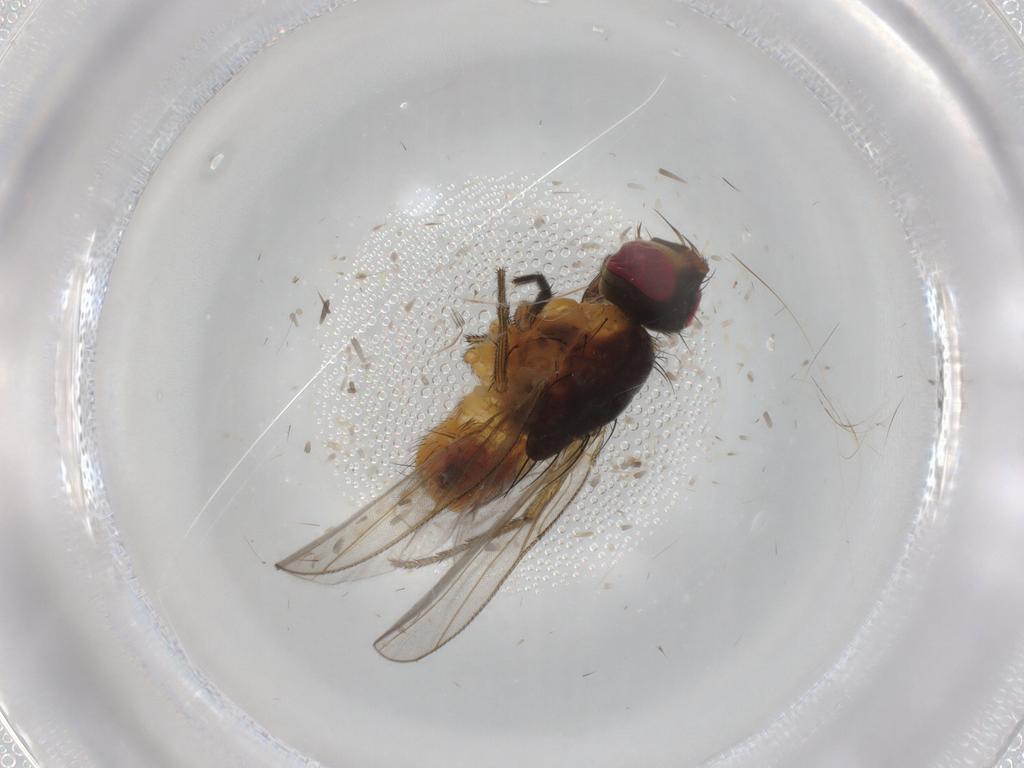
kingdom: Animalia
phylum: Arthropoda
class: Insecta
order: Diptera
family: Muscidae
